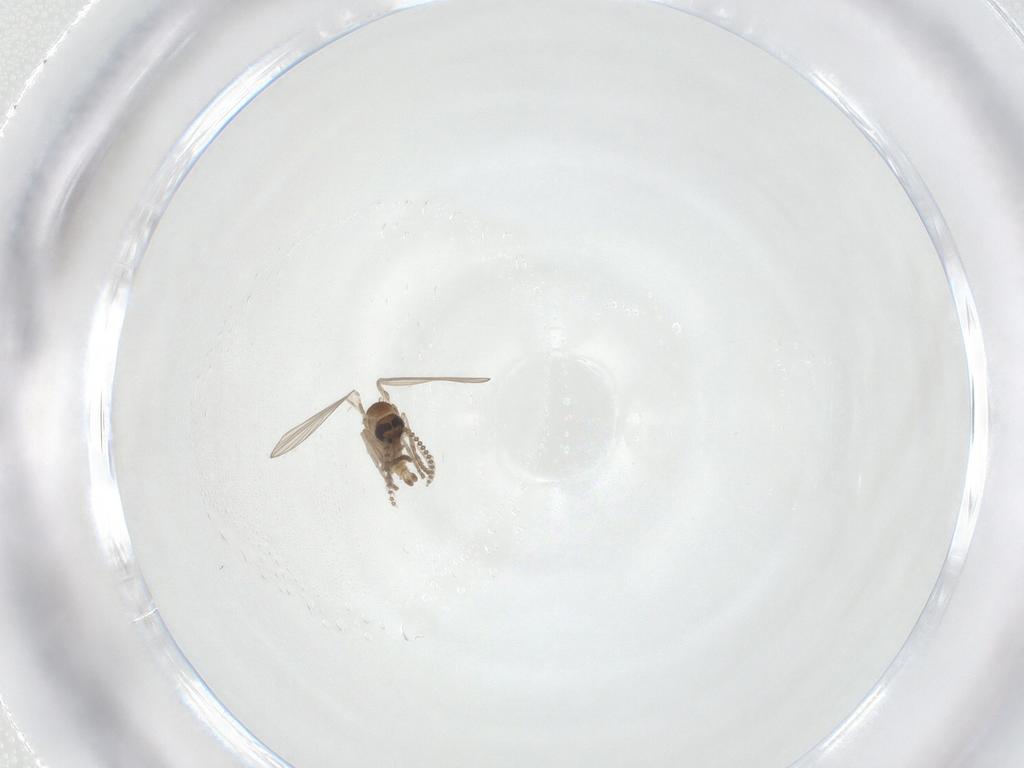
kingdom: Animalia
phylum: Arthropoda
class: Insecta
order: Diptera
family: Psychodidae
